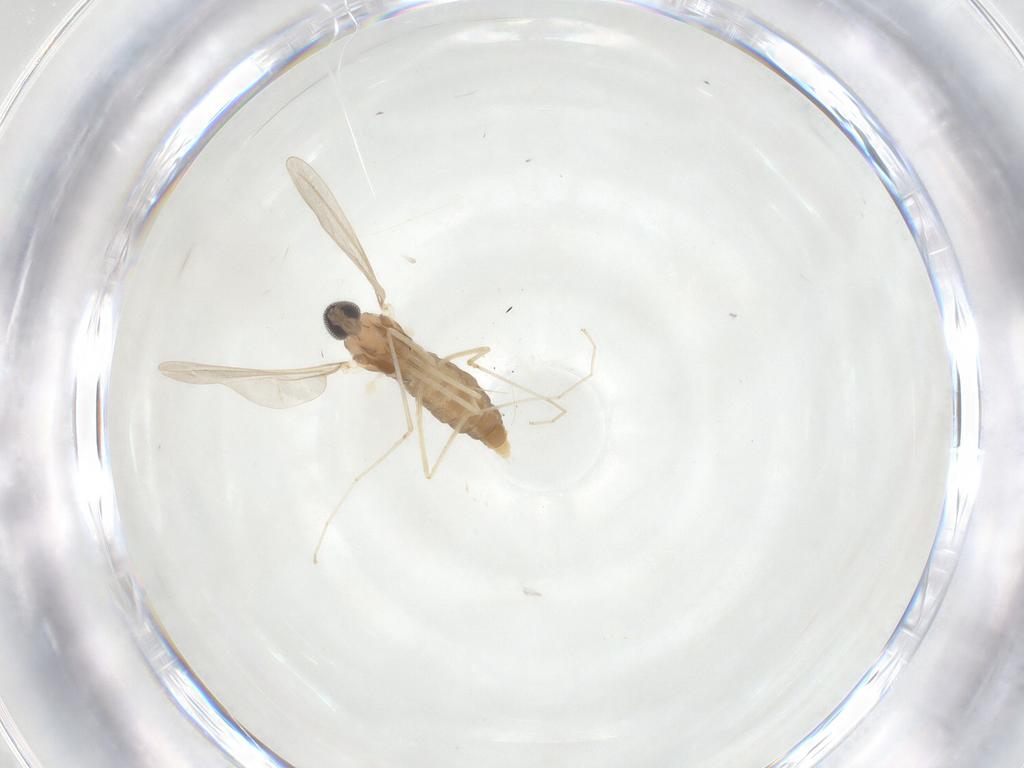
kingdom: Animalia
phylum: Arthropoda
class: Insecta
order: Diptera
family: Cecidomyiidae
